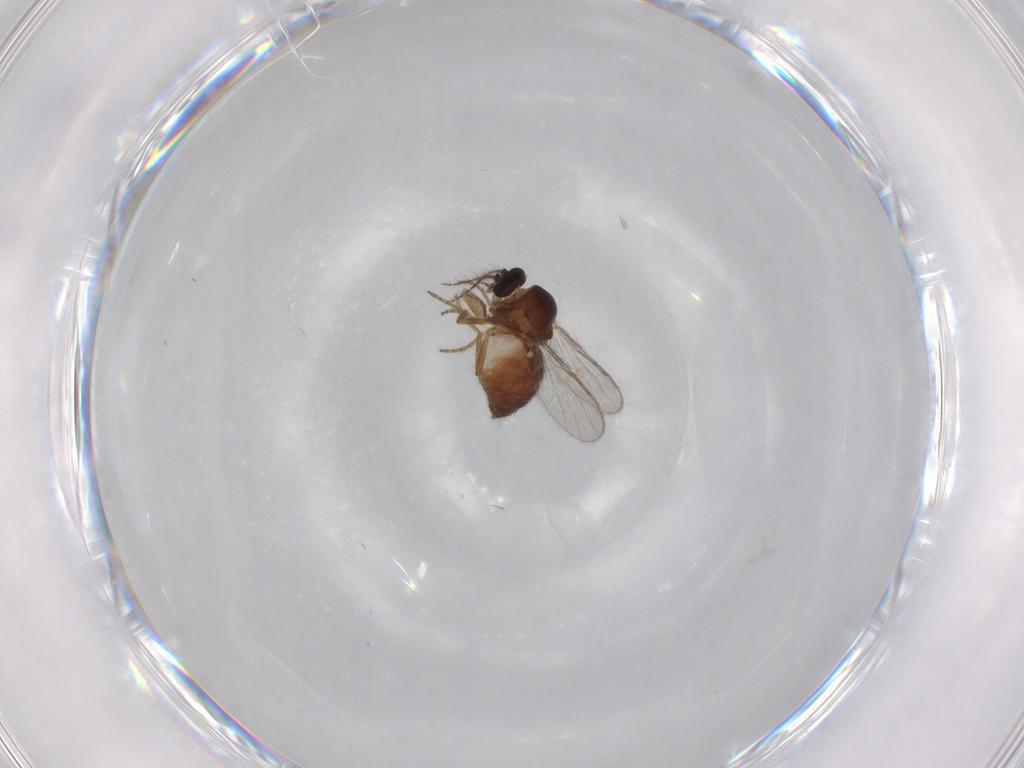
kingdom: Animalia
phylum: Arthropoda
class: Insecta
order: Diptera
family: Ceratopogonidae
